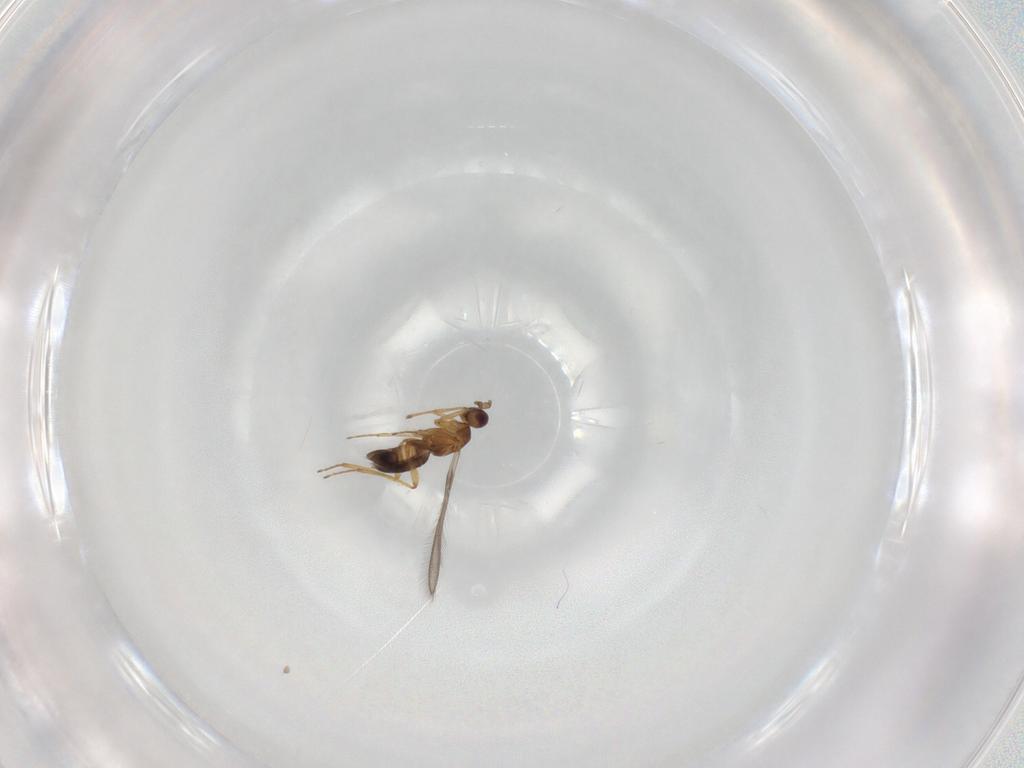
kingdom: Animalia
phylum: Arthropoda
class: Insecta
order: Hymenoptera
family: Mymaridae
